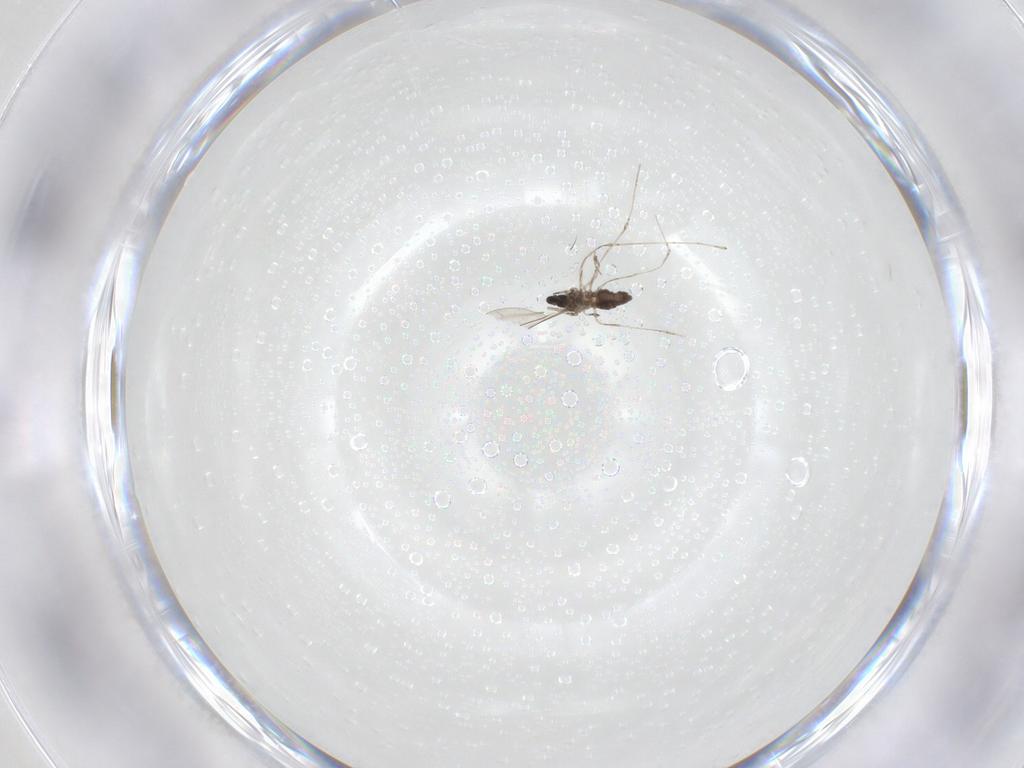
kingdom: Animalia
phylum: Arthropoda
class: Insecta
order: Diptera
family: Cecidomyiidae
